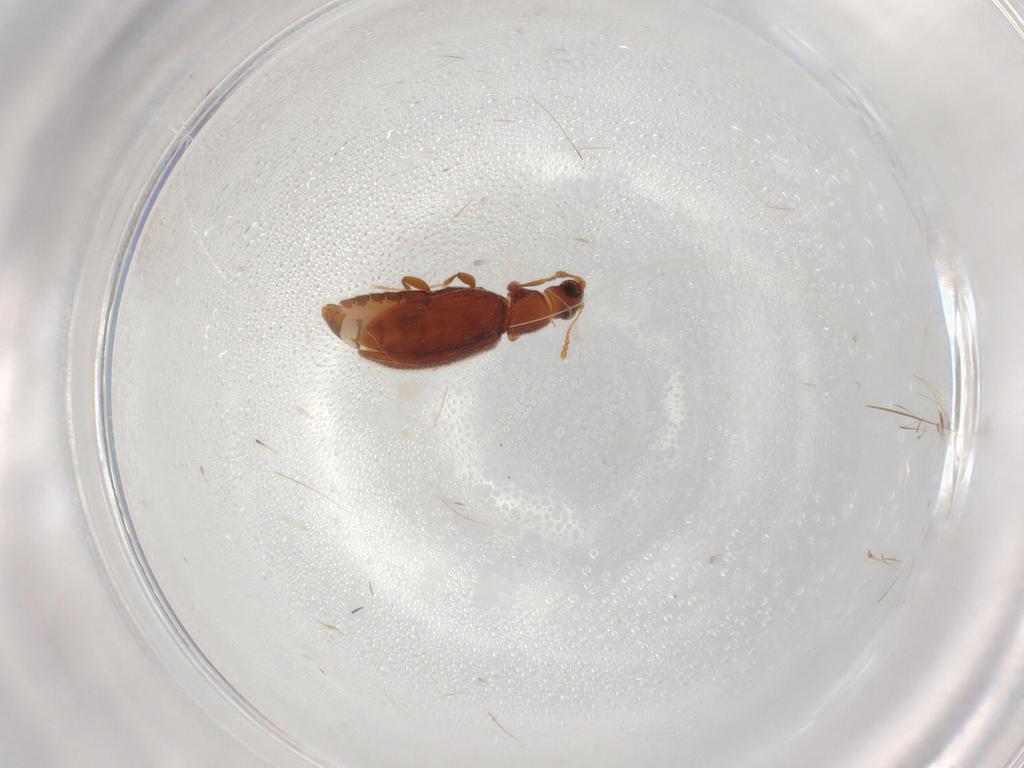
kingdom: Animalia
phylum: Arthropoda
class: Insecta
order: Coleoptera
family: Latridiidae
